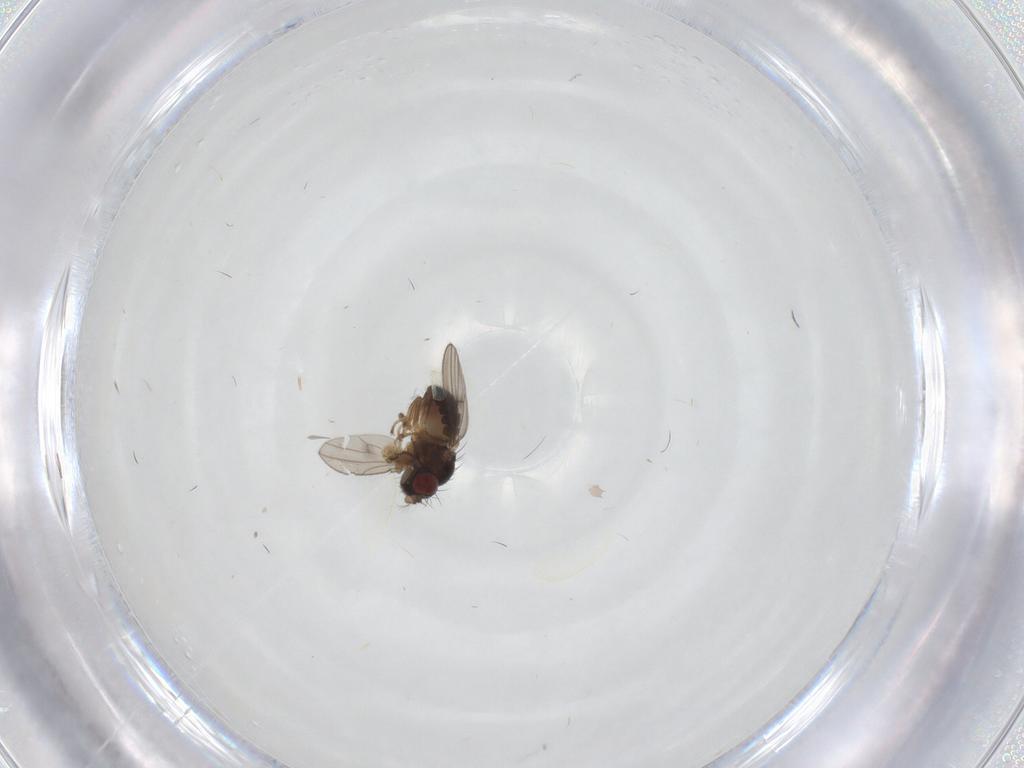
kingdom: Animalia
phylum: Arthropoda
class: Insecta
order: Diptera
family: Ephydridae
